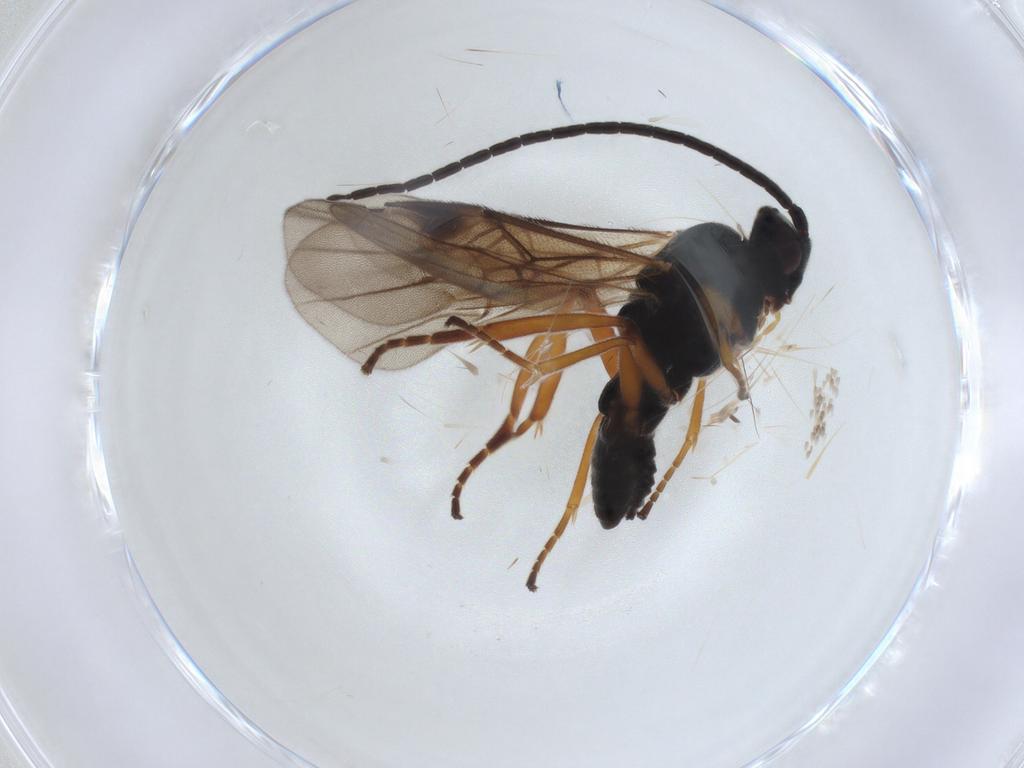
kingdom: Animalia
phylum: Arthropoda
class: Insecta
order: Hymenoptera
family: Braconidae
